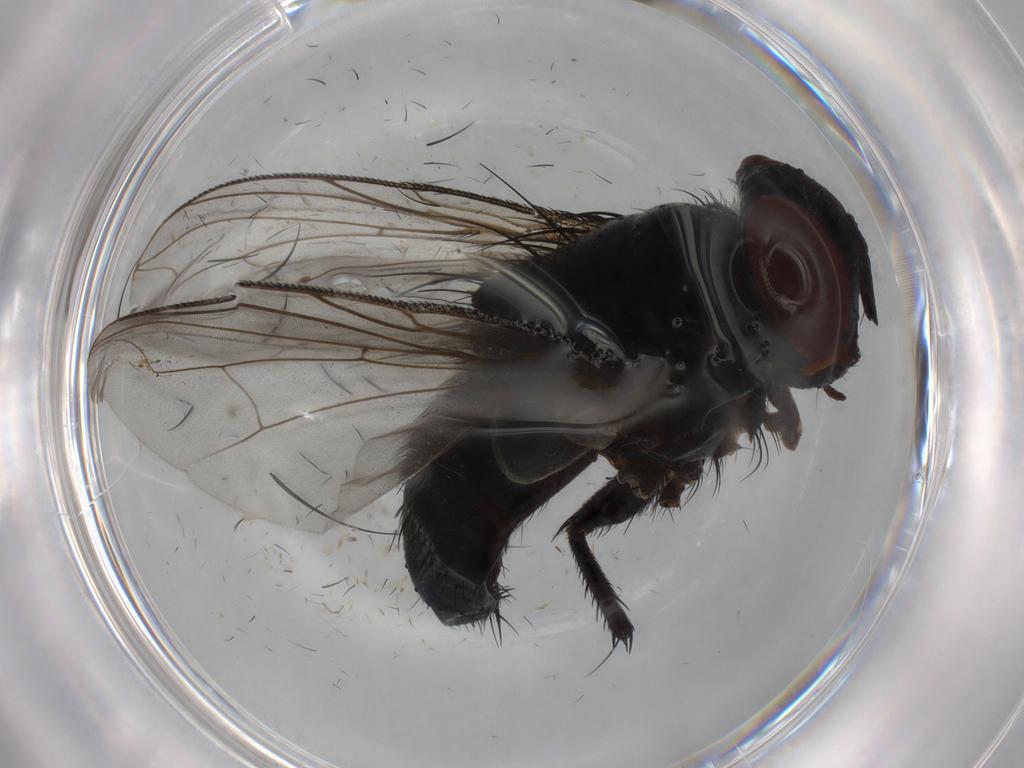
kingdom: Animalia
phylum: Arthropoda
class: Insecta
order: Diptera
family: Tachinidae
